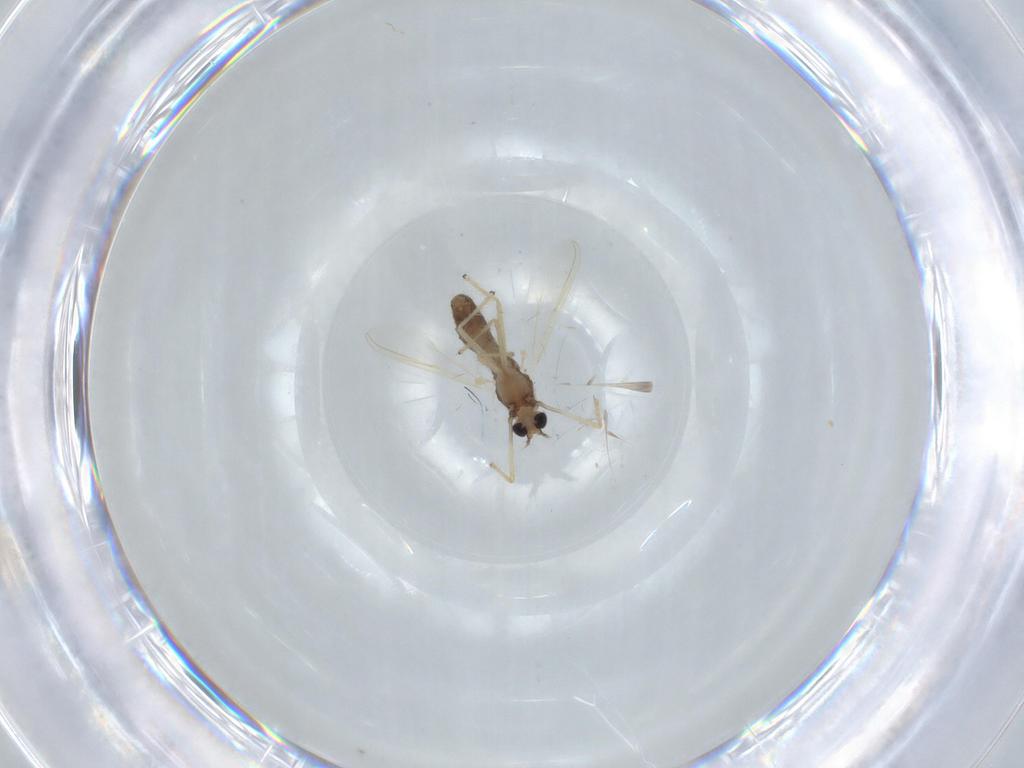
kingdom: Animalia
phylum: Arthropoda
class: Insecta
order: Diptera
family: Chironomidae
